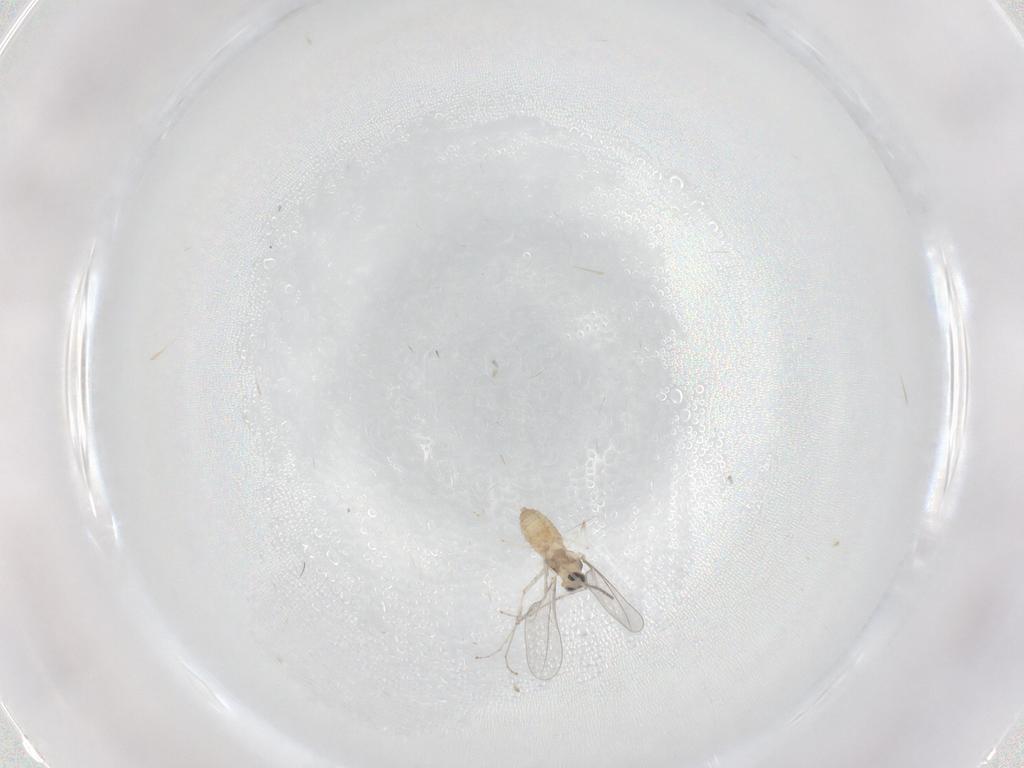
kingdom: Animalia
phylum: Arthropoda
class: Insecta
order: Diptera
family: Cecidomyiidae
